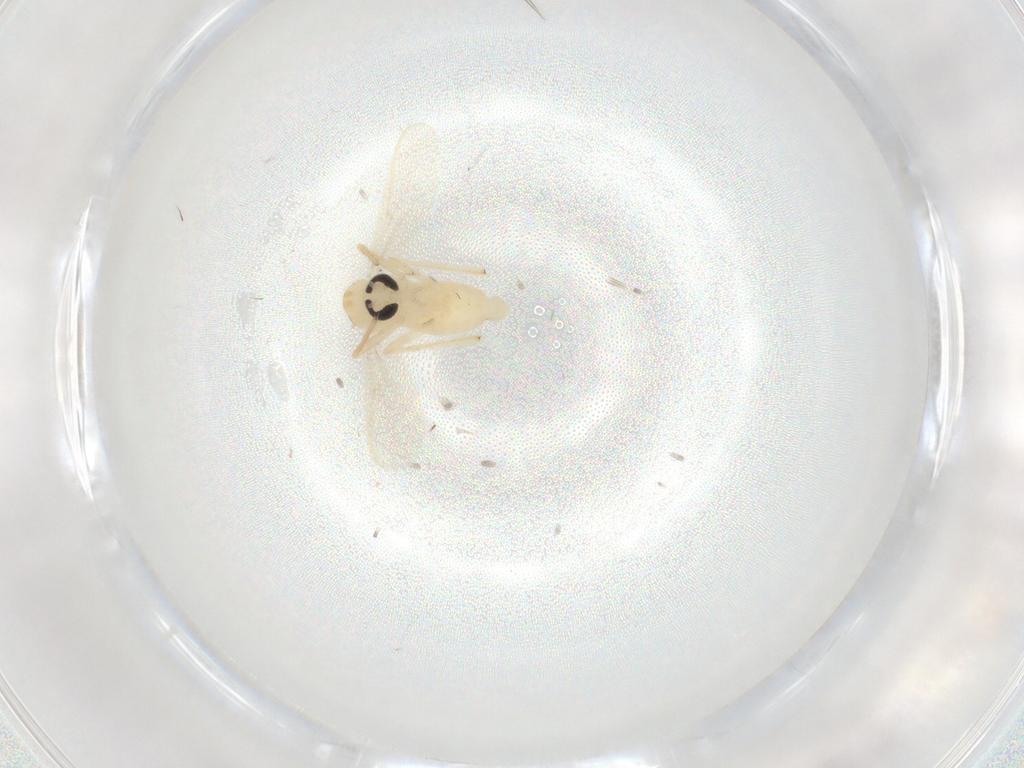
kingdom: Animalia
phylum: Arthropoda
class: Insecta
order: Diptera
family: Chironomidae
